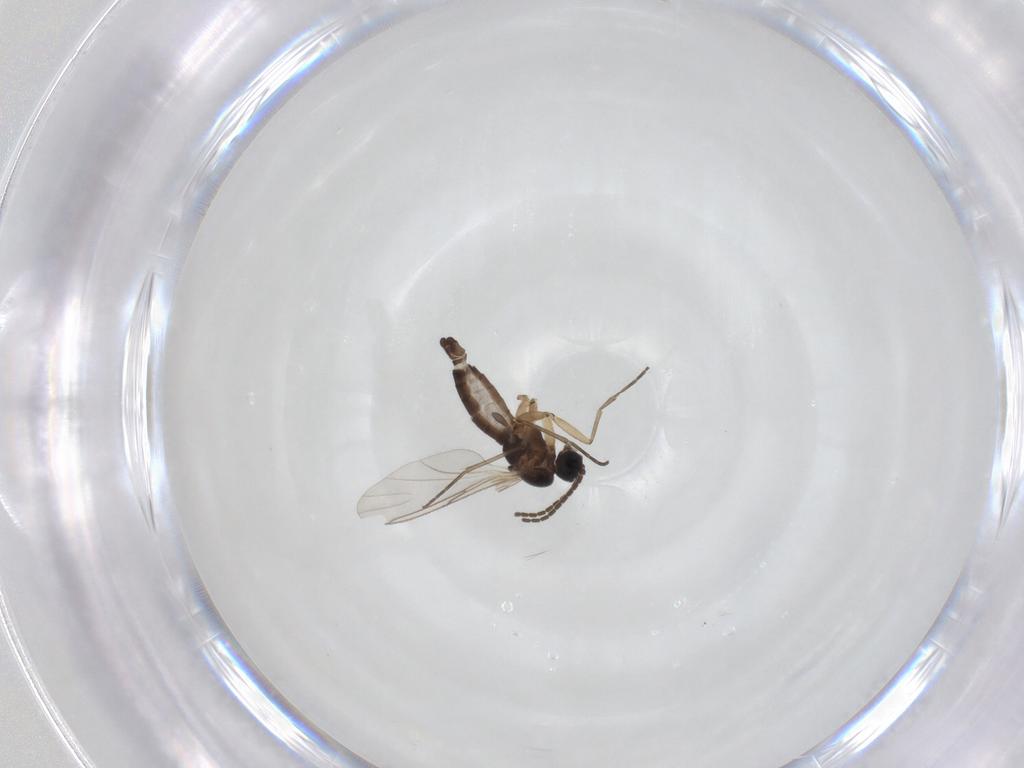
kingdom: Animalia
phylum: Arthropoda
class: Insecta
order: Diptera
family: Sciaridae
